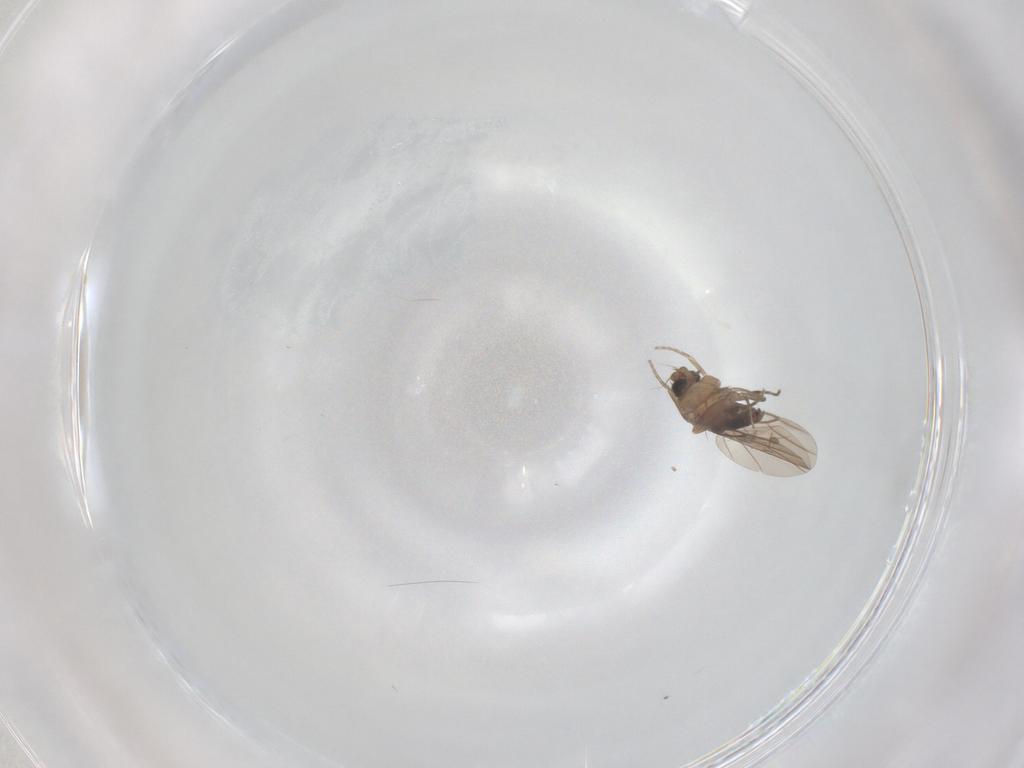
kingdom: Animalia
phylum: Arthropoda
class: Insecta
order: Diptera
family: Phoridae
